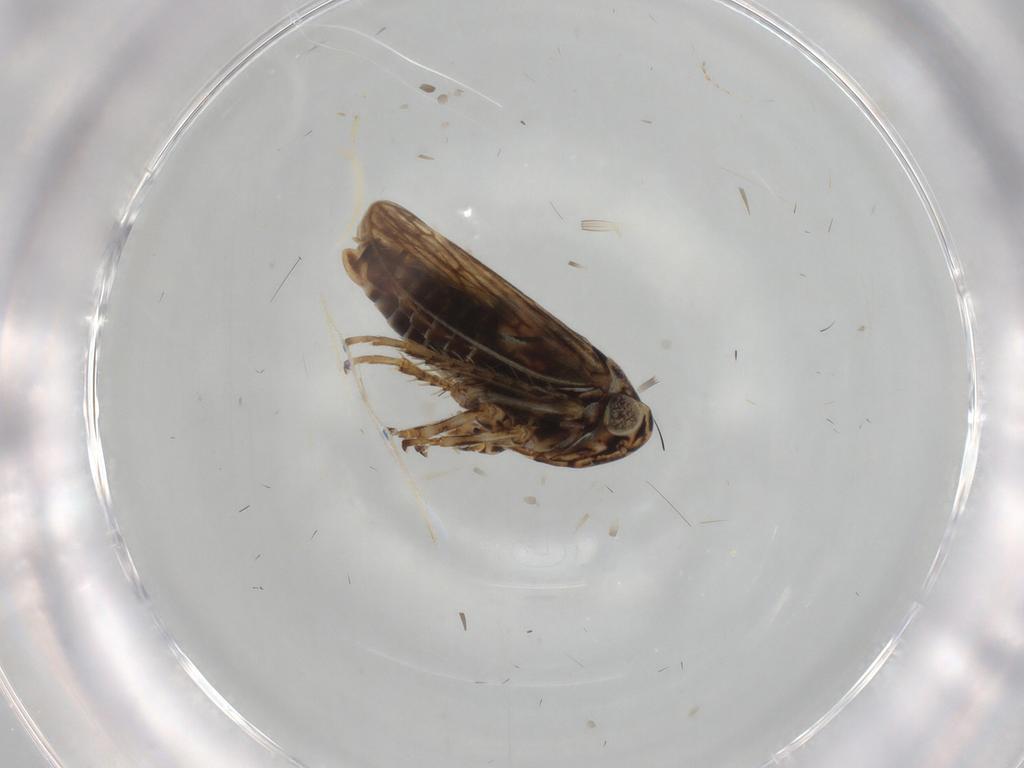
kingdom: Animalia
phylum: Arthropoda
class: Insecta
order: Hemiptera
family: Cicadellidae
